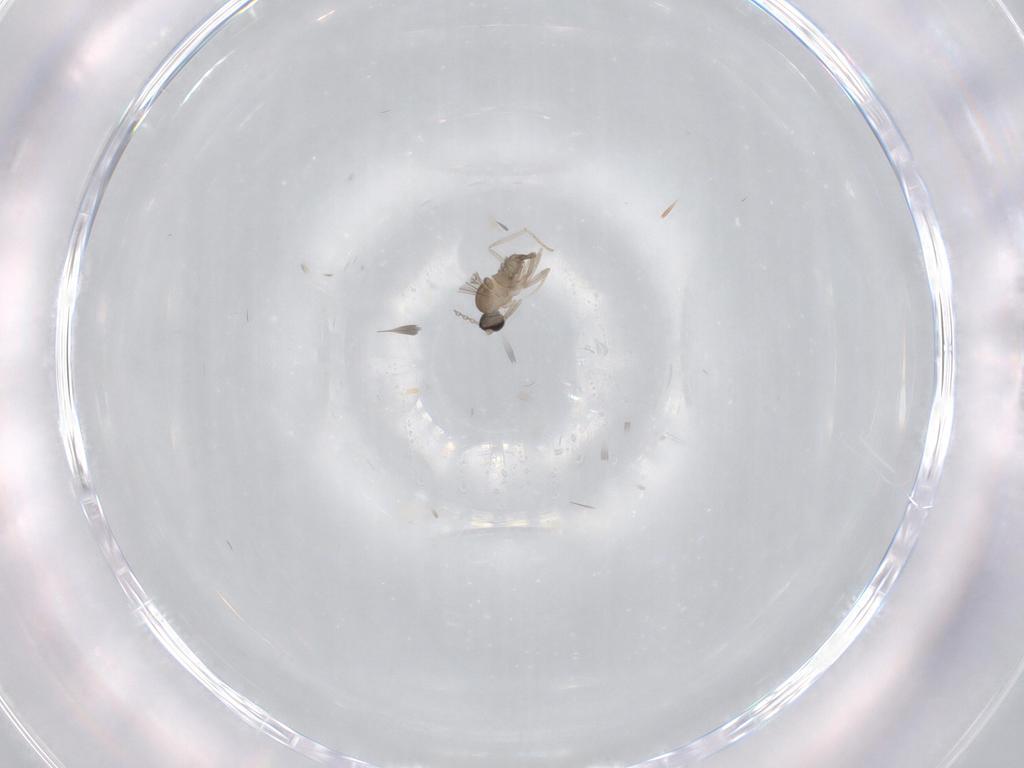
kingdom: Animalia
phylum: Arthropoda
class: Insecta
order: Diptera
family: Cecidomyiidae
